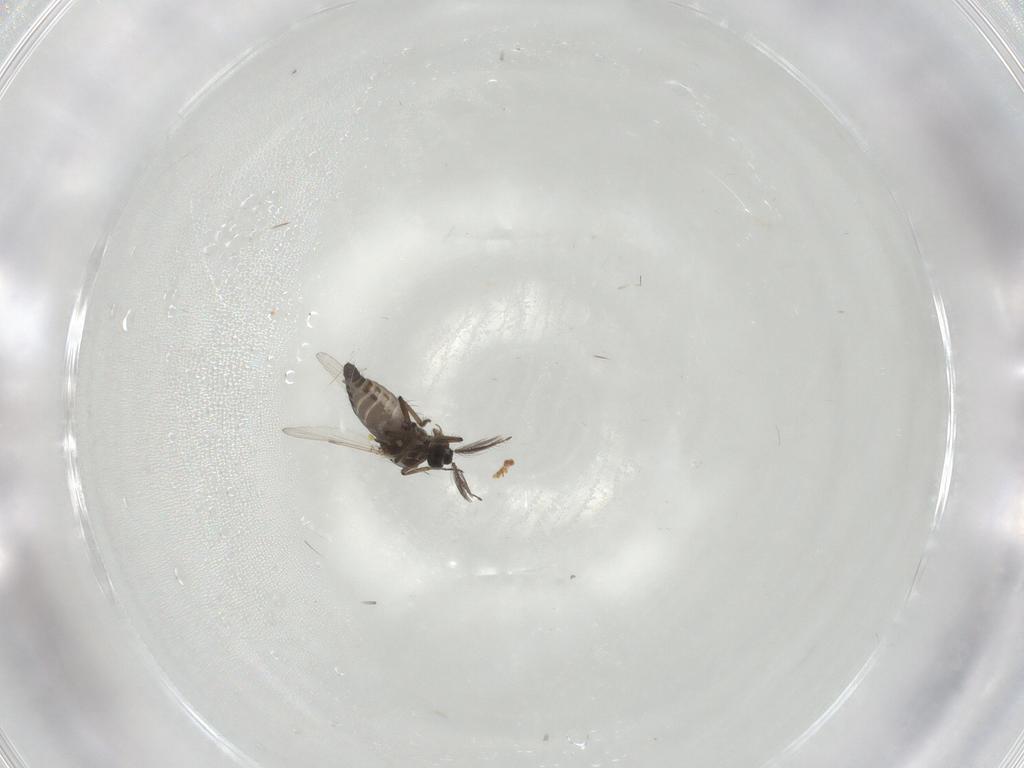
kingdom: Animalia
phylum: Arthropoda
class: Insecta
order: Diptera
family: Ceratopogonidae
